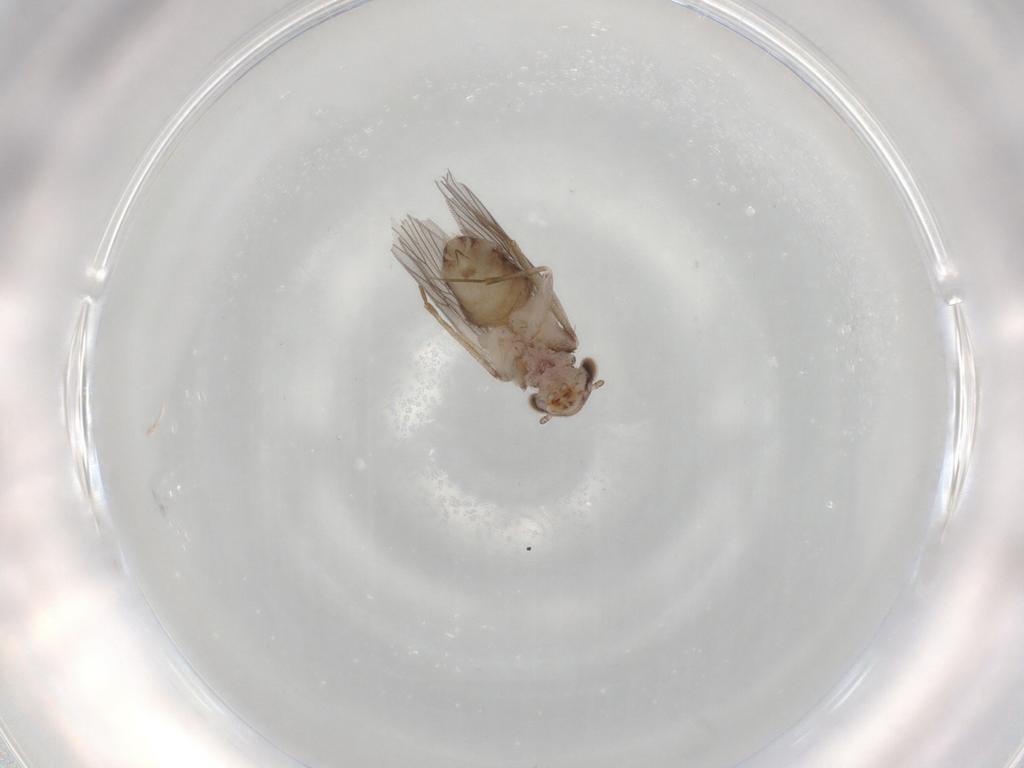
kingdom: Animalia
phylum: Arthropoda
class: Insecta
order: Psocodea
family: Lepidopsocidae
